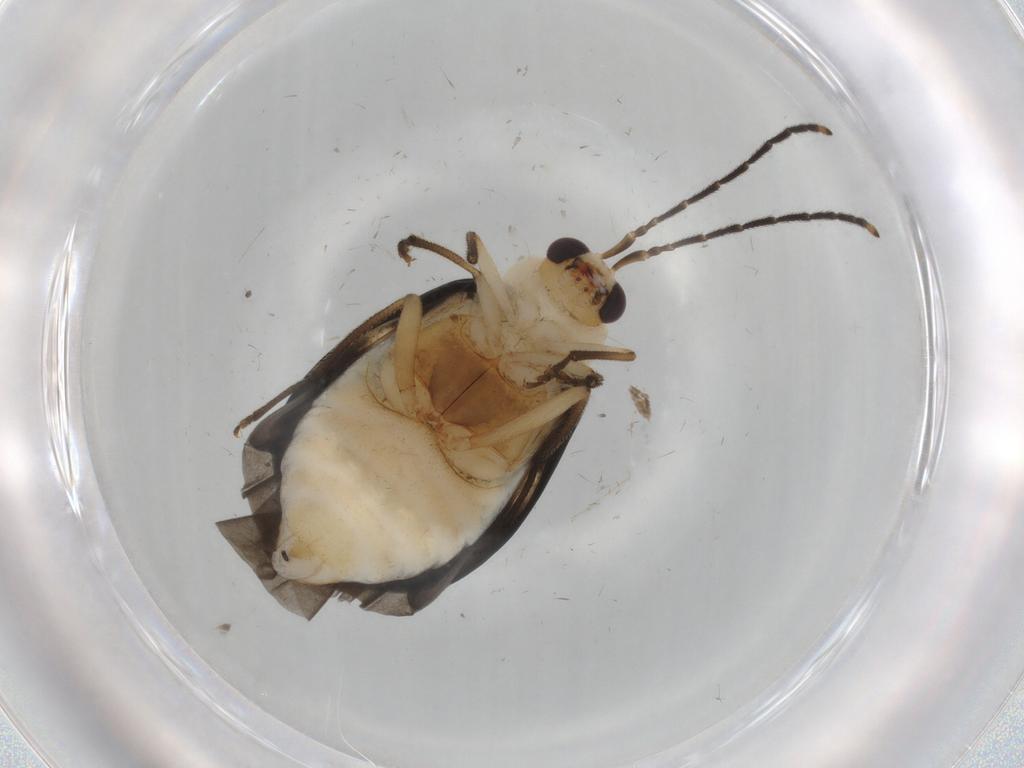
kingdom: Animalia
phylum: Arthropoda
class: Insecta
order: Coleoptera
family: Chrysomelidae
